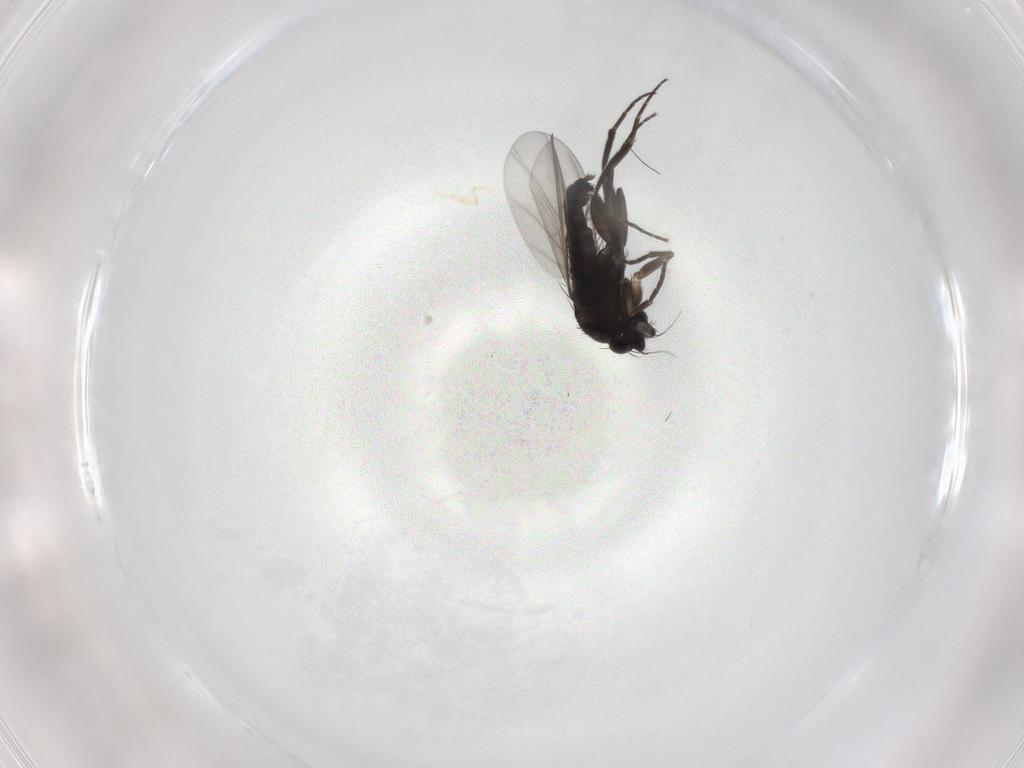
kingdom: Animalia
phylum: Arthropoda
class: Insecta
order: Diptera
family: Phoridae
